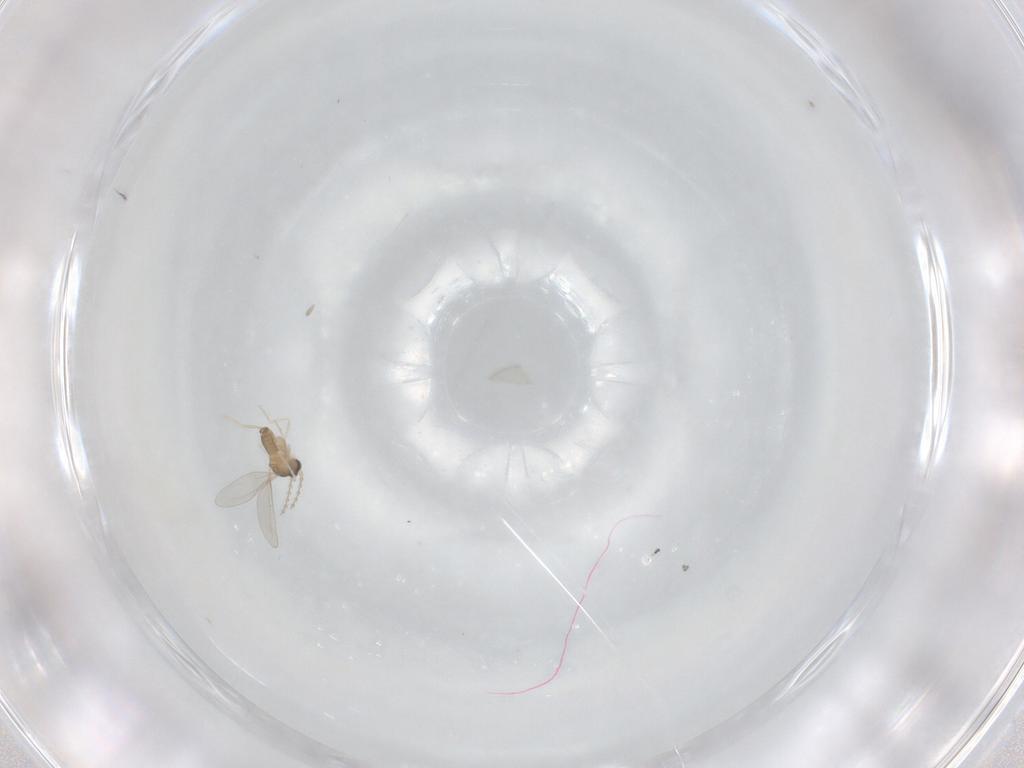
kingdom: Animalia
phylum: Arthropoda
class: Insecta
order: Diptera
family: Cecidomyiidae
